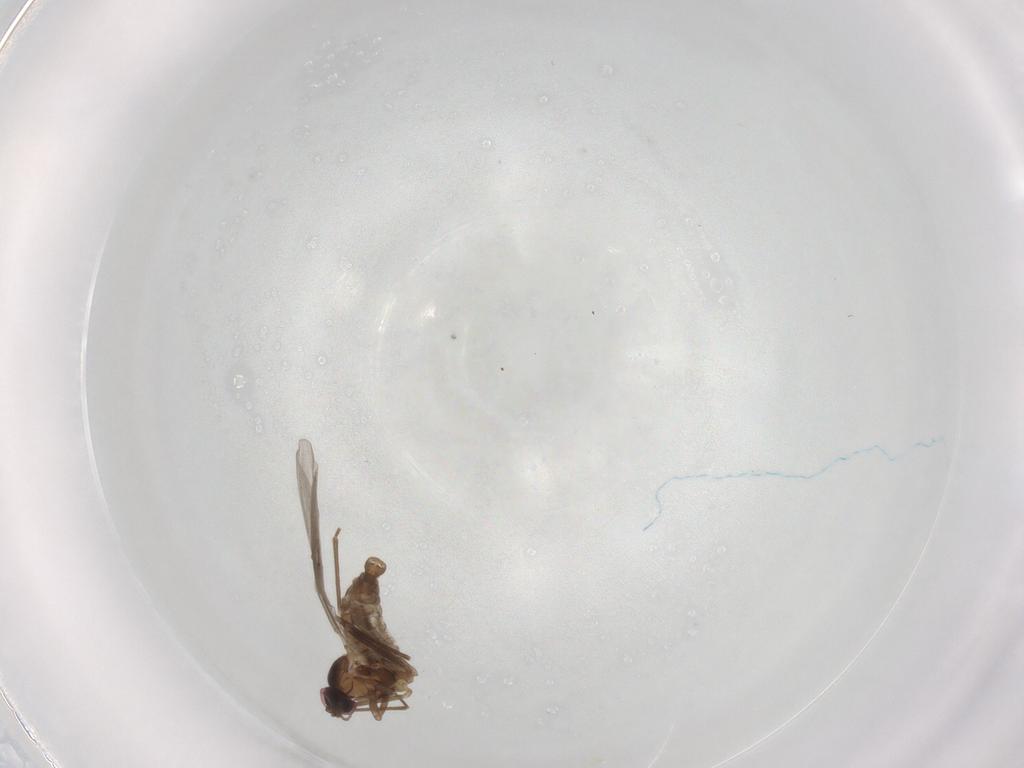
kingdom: Animalia
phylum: Arthropoda
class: Insecta
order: Diptera
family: Cecidomyiidae
